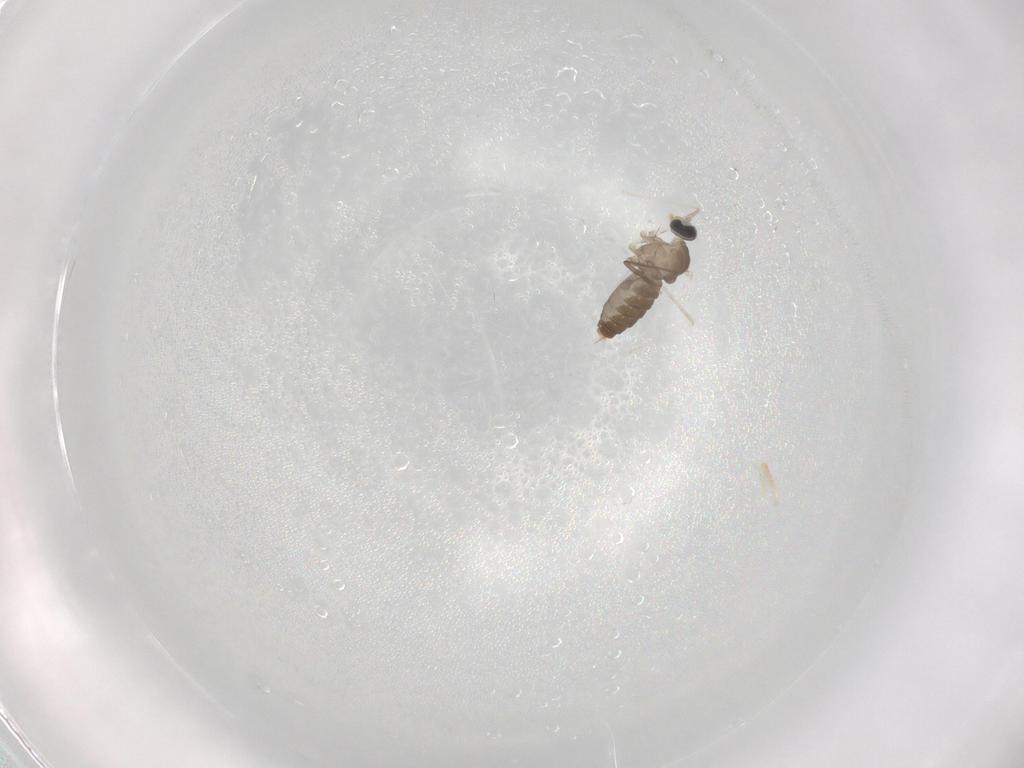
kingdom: Animalia
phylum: Arthropoda
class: Insecta
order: Diptera
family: Cecidomyiidae
